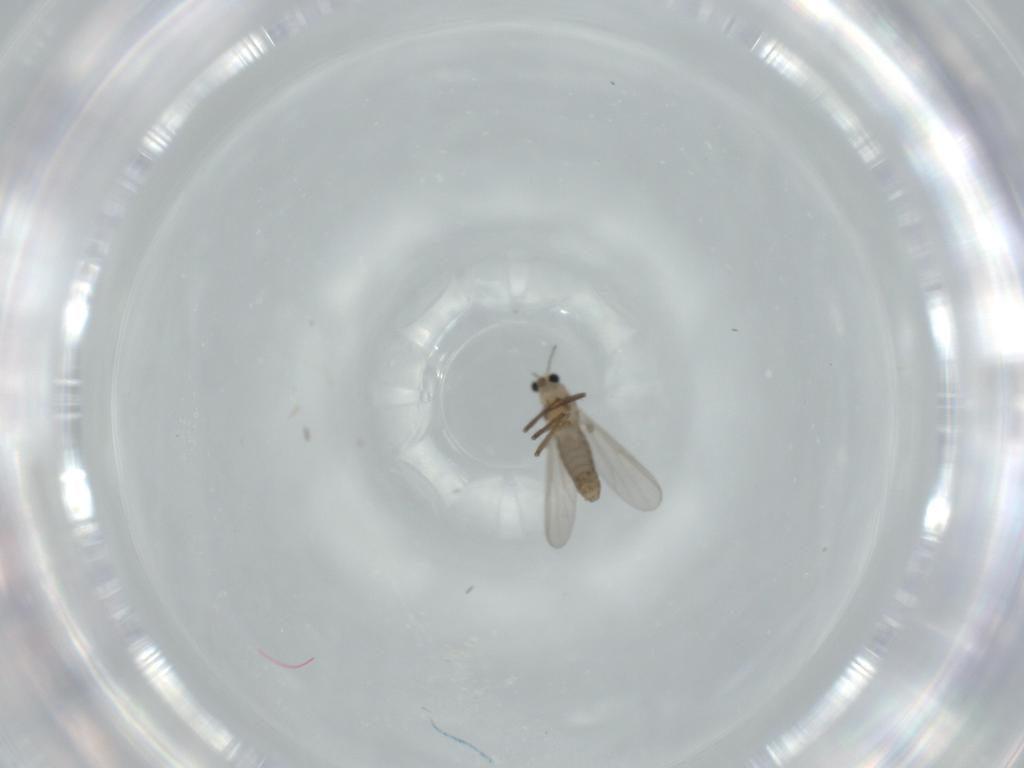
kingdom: Animalia
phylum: Arthropoda
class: Insecta
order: Diptera
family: Chironomidae
